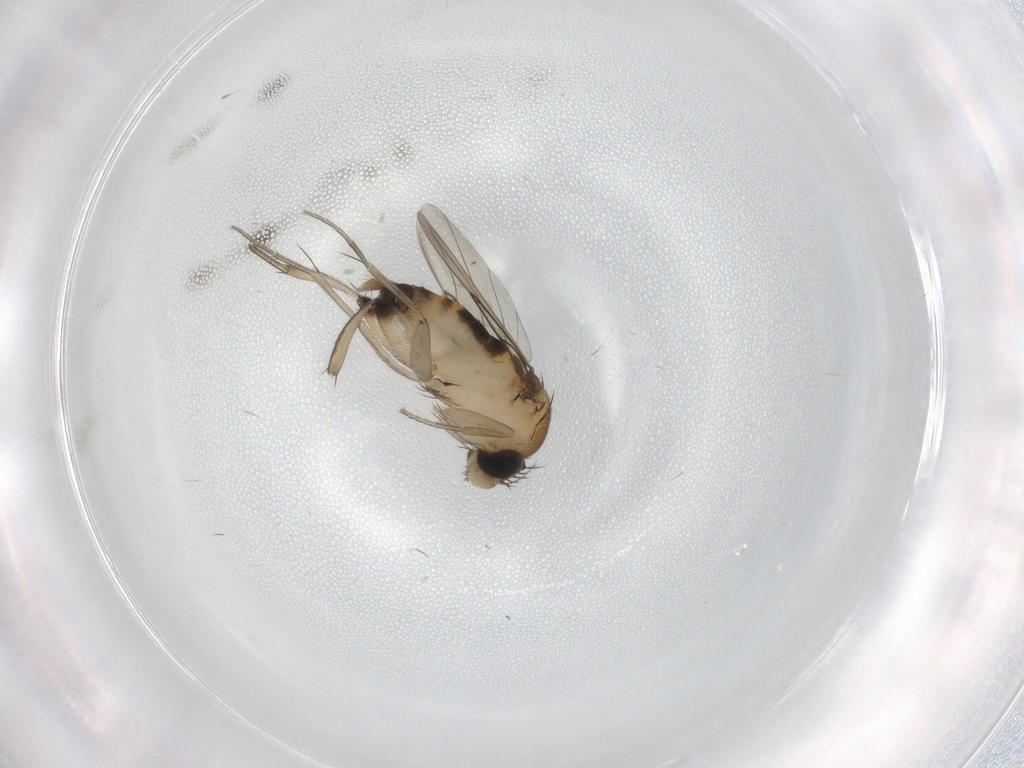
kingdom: Animalia
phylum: Arthropoda
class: Insecta
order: Diptera
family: Phoridae
